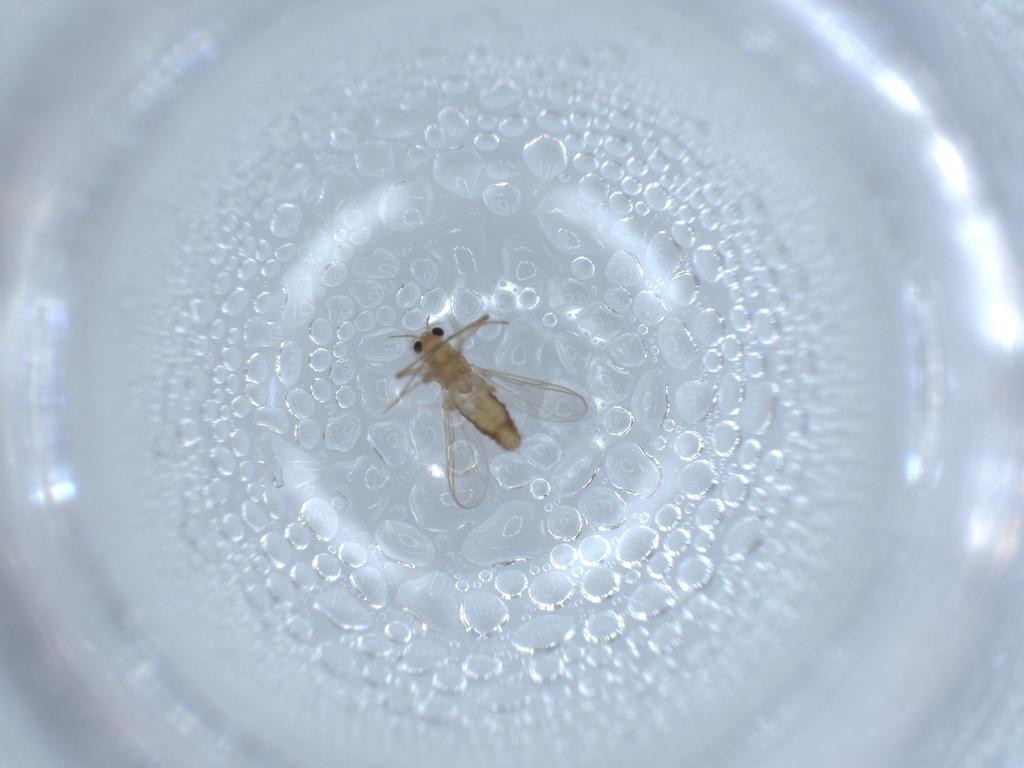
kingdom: Animalia
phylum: Arthropoda
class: Insecta
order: Diptera
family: Chironomidae
